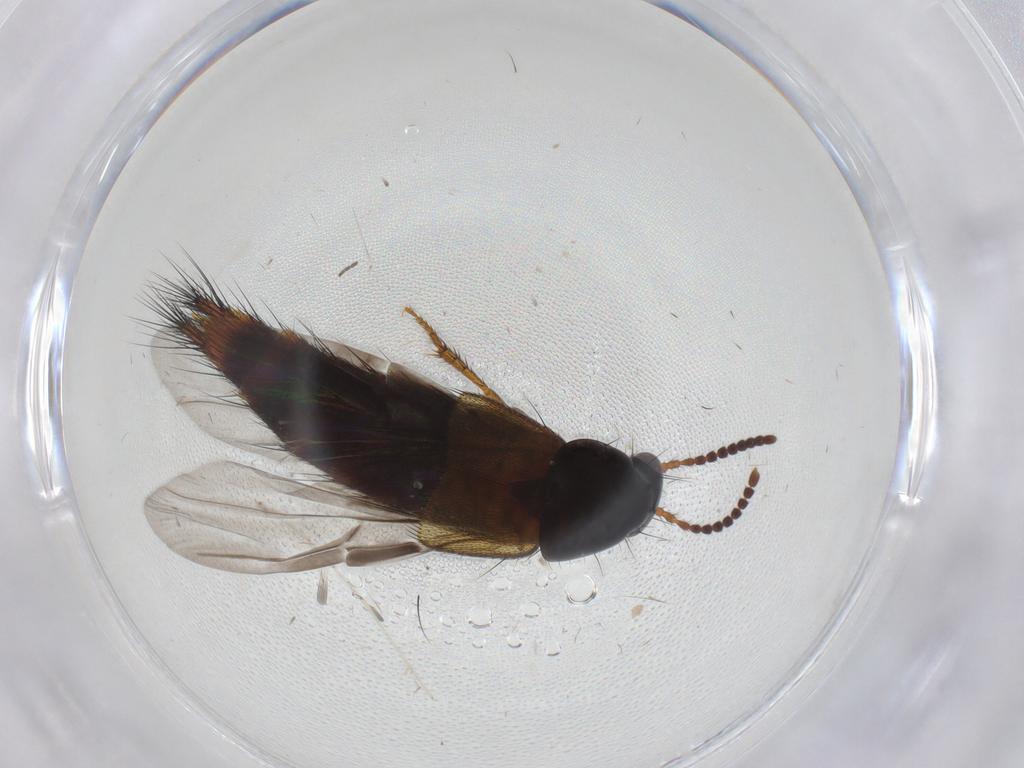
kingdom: Animalia
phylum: Arthropoda
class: Insecta
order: Coleoptera
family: Staphylinidae
